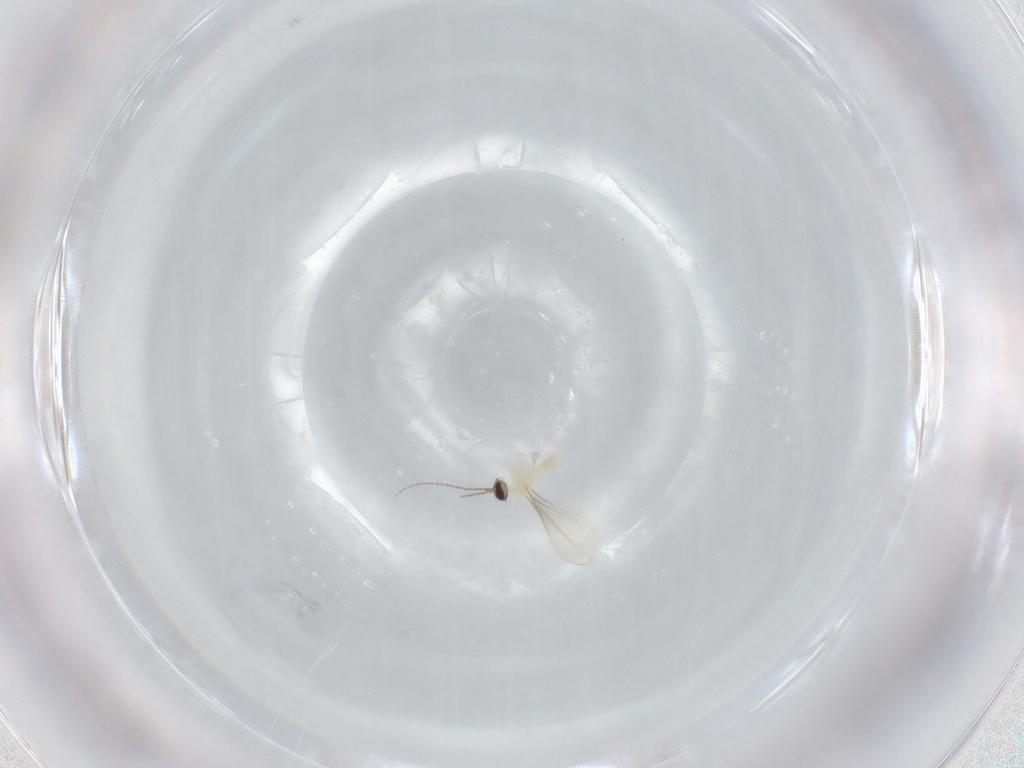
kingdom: Animalia
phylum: Arthropoda
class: Insecta
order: Diptera
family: Cecidomyiidae
